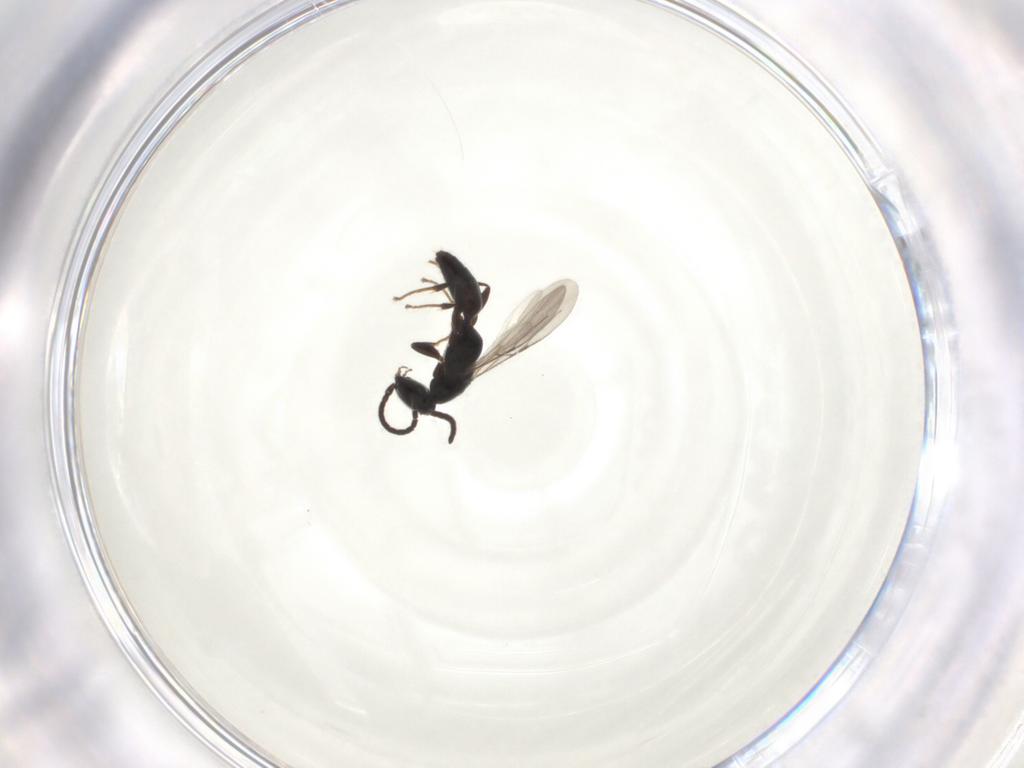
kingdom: Animalia
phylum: Arthropoda
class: Insecta
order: Hymenoptera
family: Bethylidae
